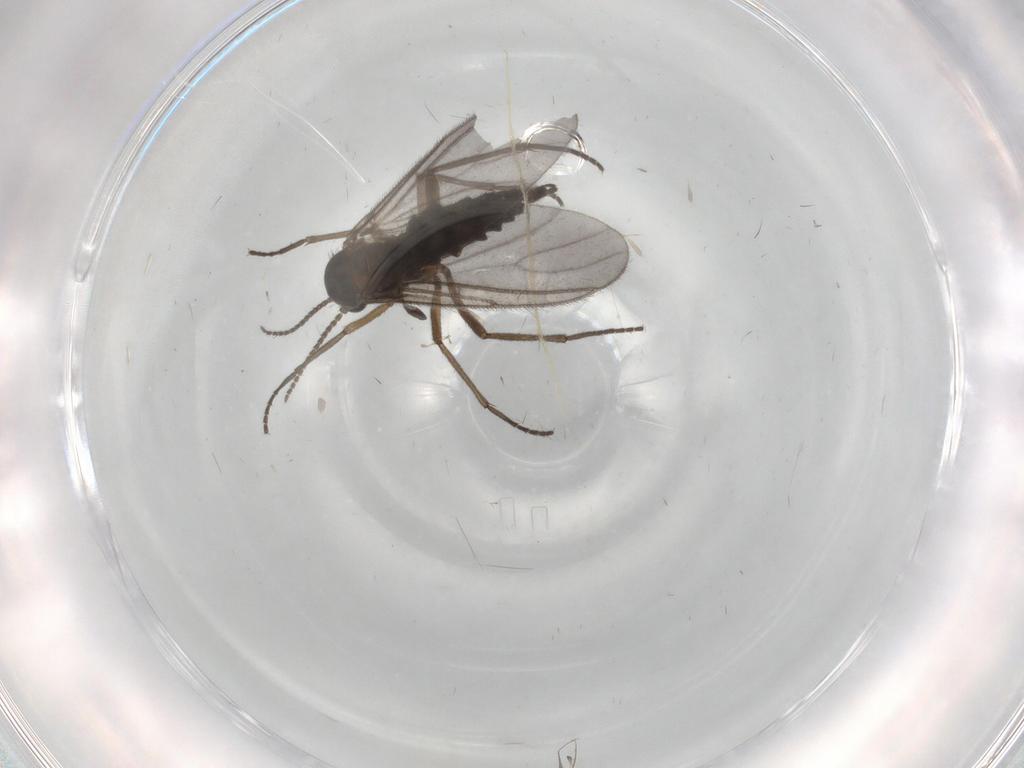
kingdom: Animalia
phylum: Arthropoda
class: Insecta
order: Diptera
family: Sciaridae
